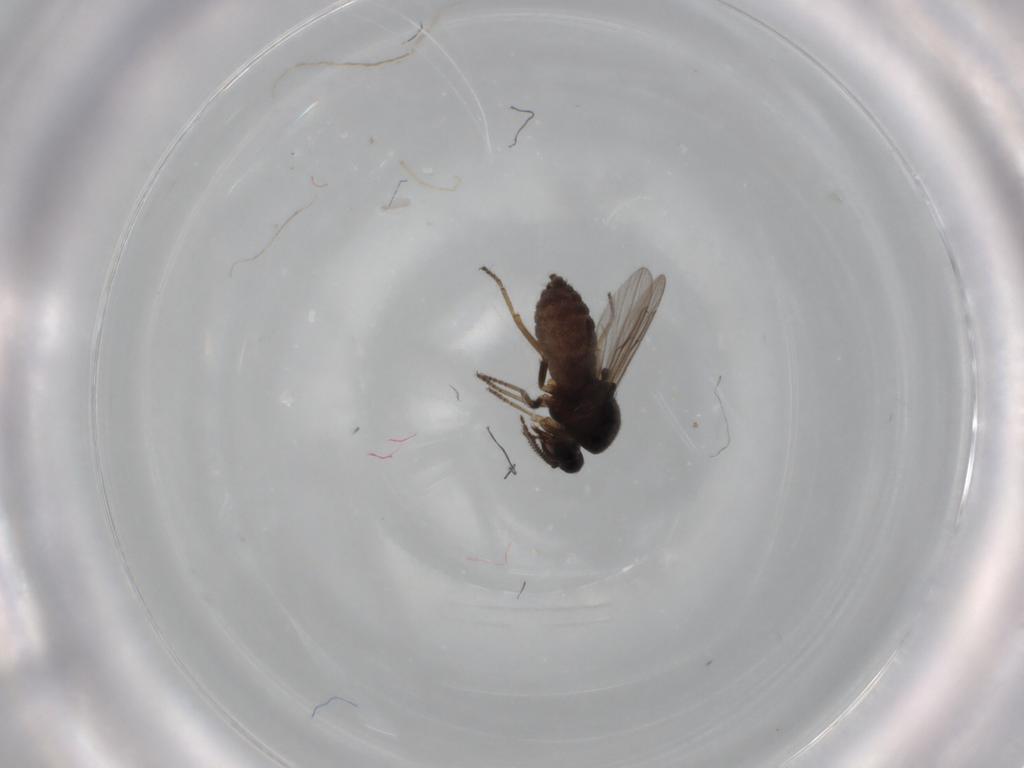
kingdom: Animalia
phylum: Arthropoda
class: Insecta
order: Diptera
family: Ceratopogonidae
